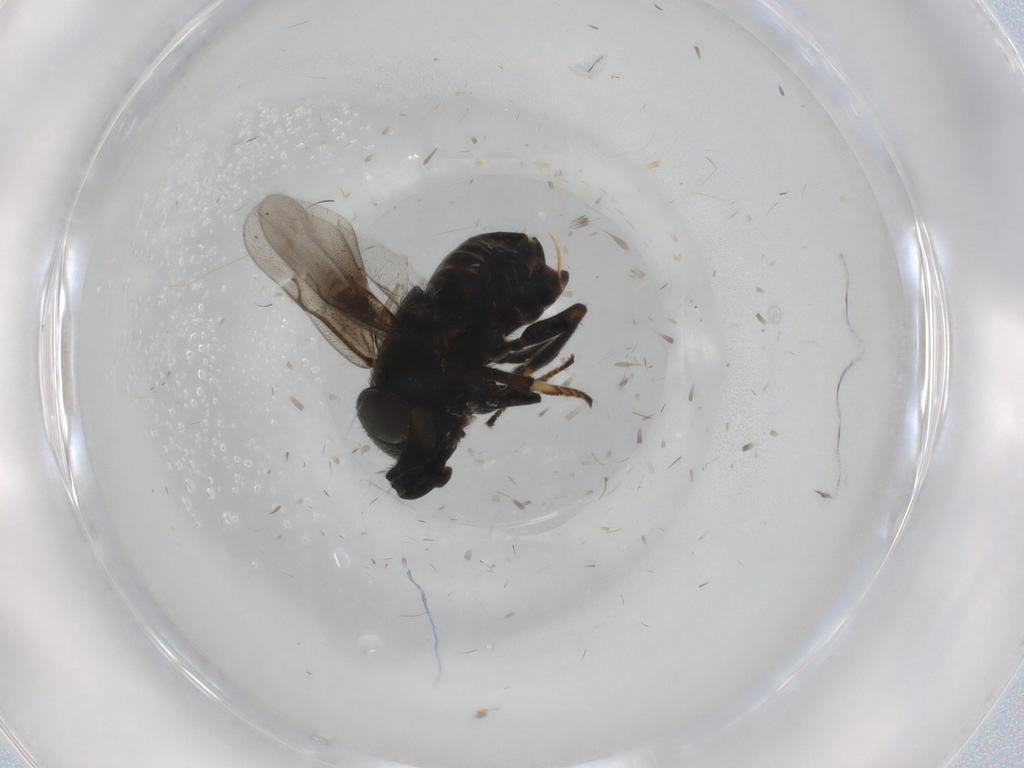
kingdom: Animalia
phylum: Arthropoda
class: Insecta
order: Diptera
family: Chironomidae
